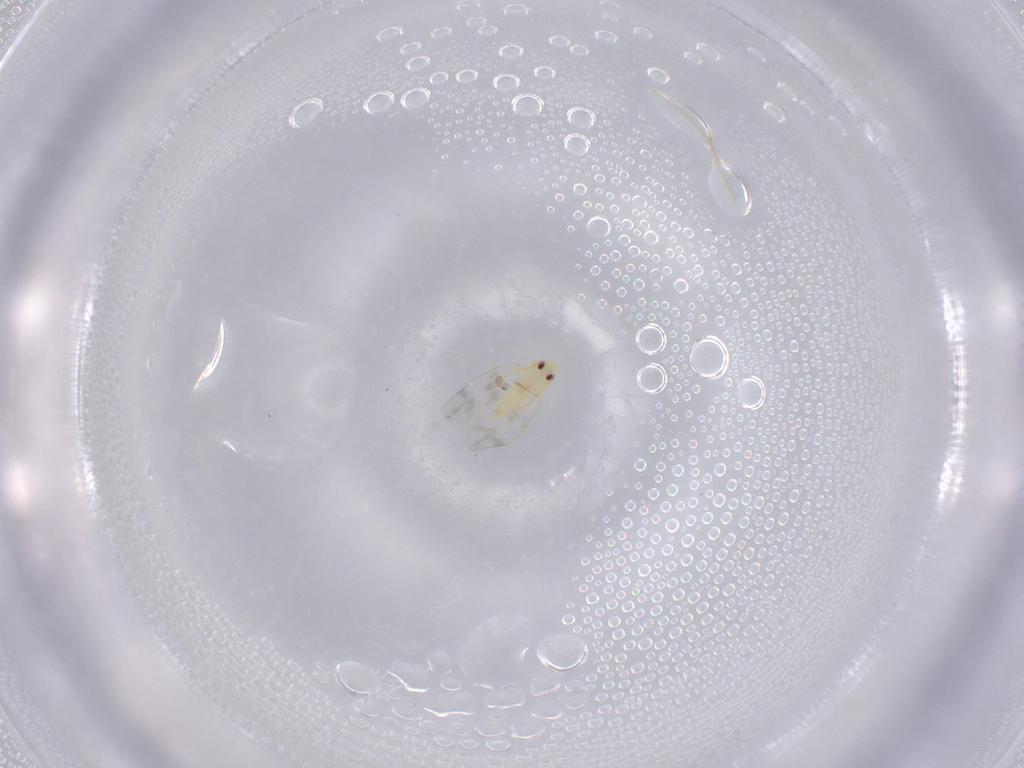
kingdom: Animalia
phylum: Arthropoda
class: Insecta
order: Hemiptera
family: Aleyrodidae
